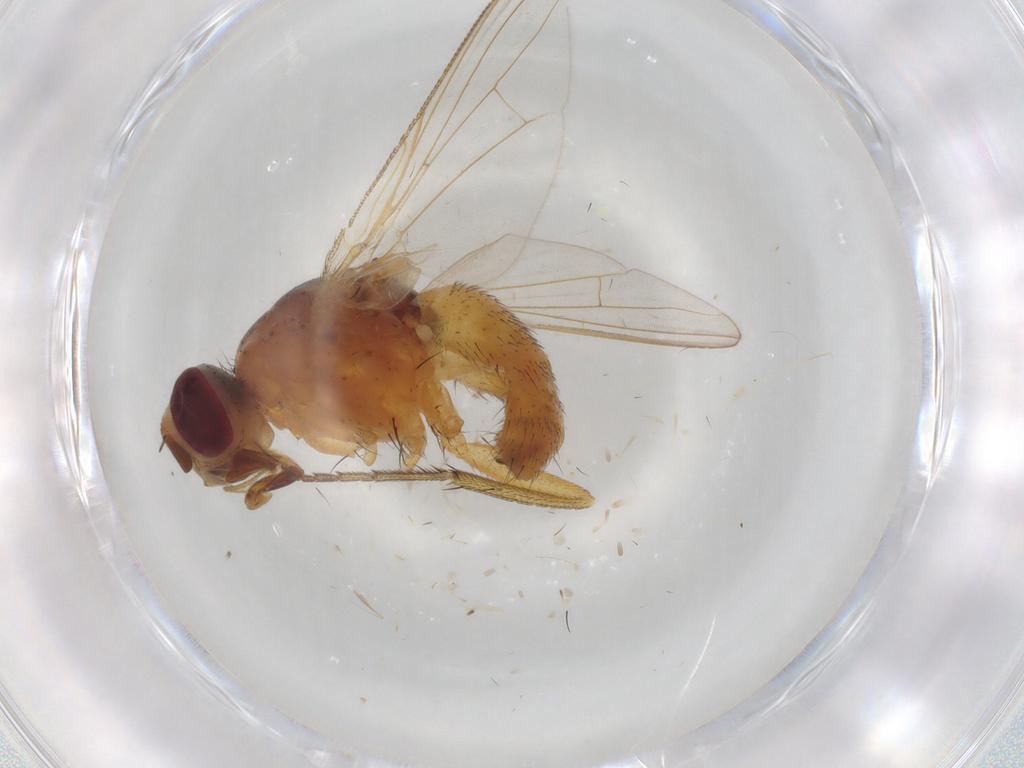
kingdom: Animalia
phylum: Arthropoda
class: Insecta
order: Diptera
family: Muscidae
